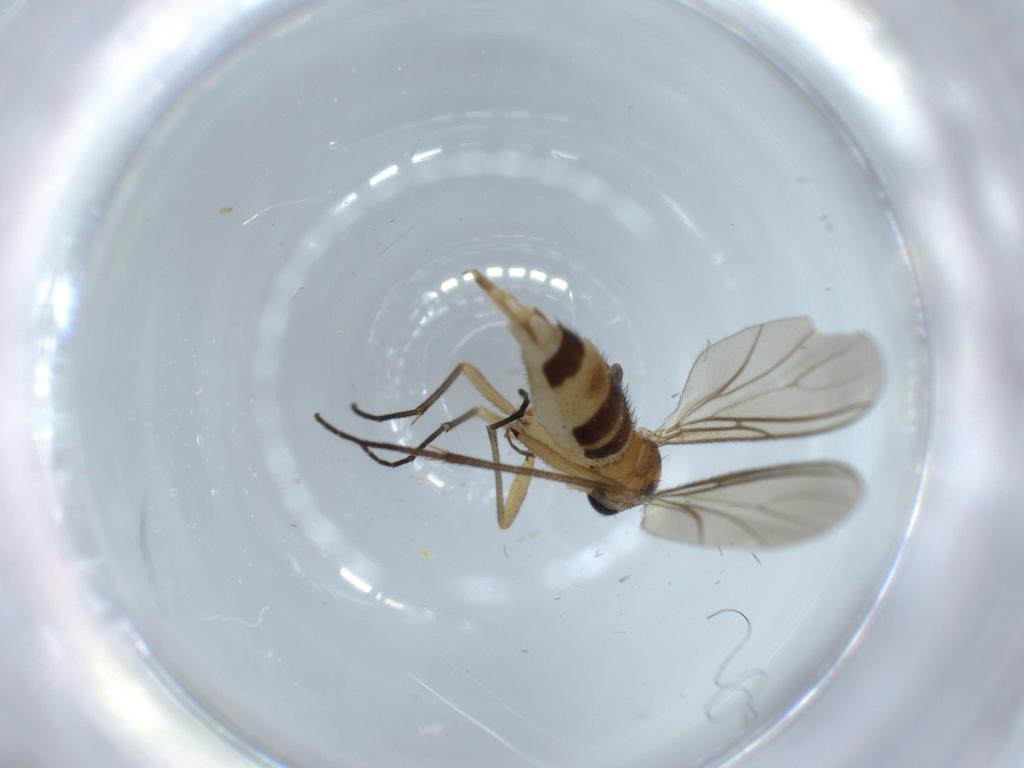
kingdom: Animalia
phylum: Arthropoda
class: Insecta
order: Diptera
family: Sciaridae
